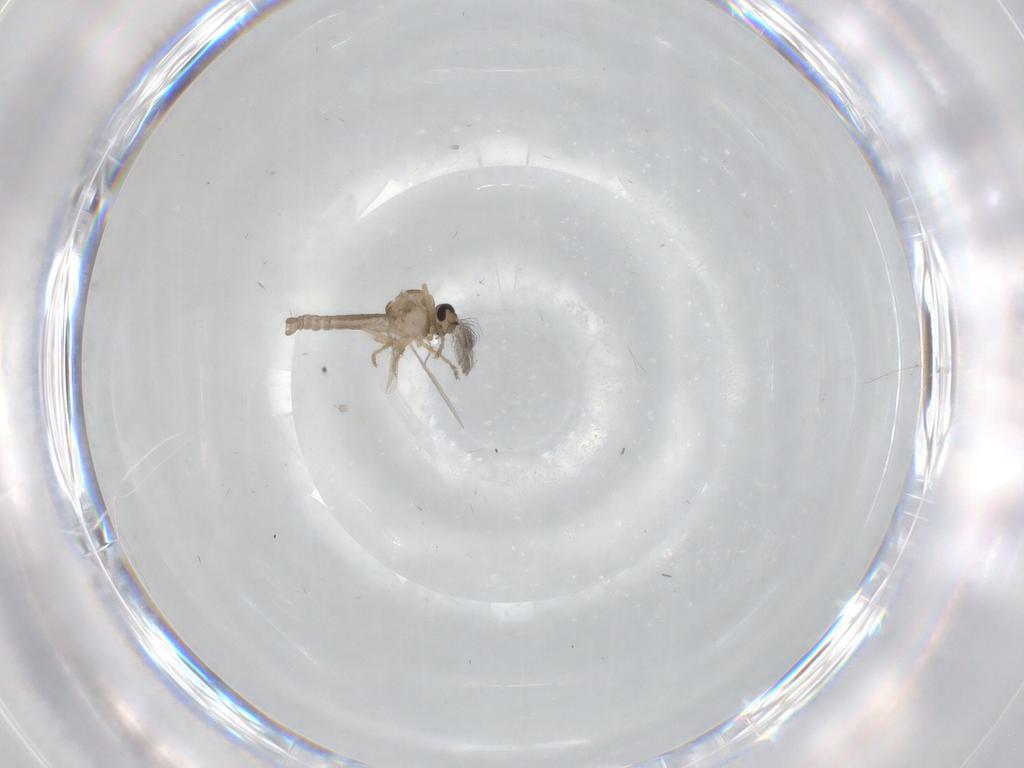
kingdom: Animalia
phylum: Arthropoda
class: Insecta
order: Diptera
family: Ceratopogonidae
